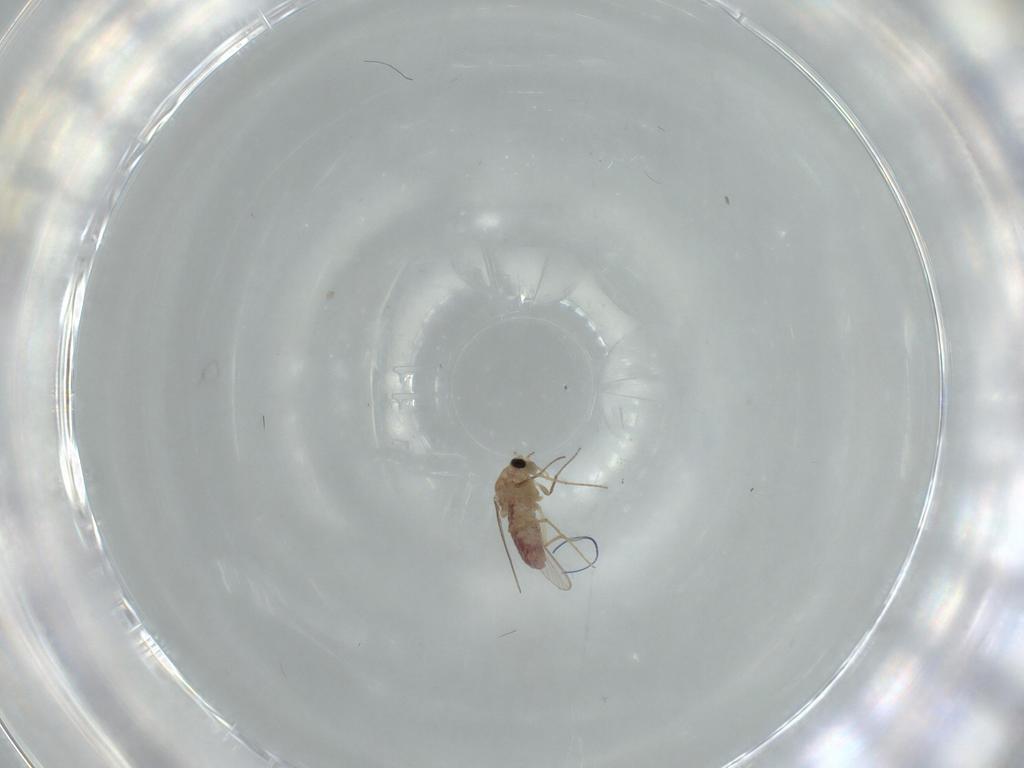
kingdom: Animalia
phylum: Arthropoda
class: Insecta
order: Diptera
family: Chironomidae
